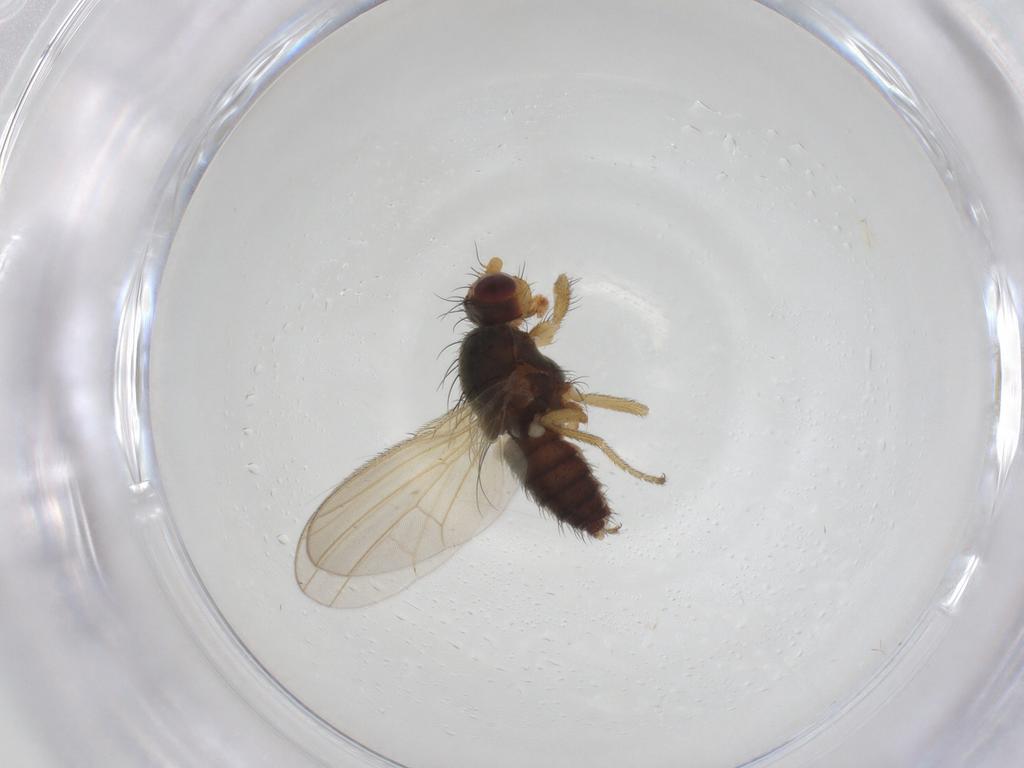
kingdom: Animalia
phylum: Arthropoda
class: Insecta
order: Diptera
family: Heleomyzidae
